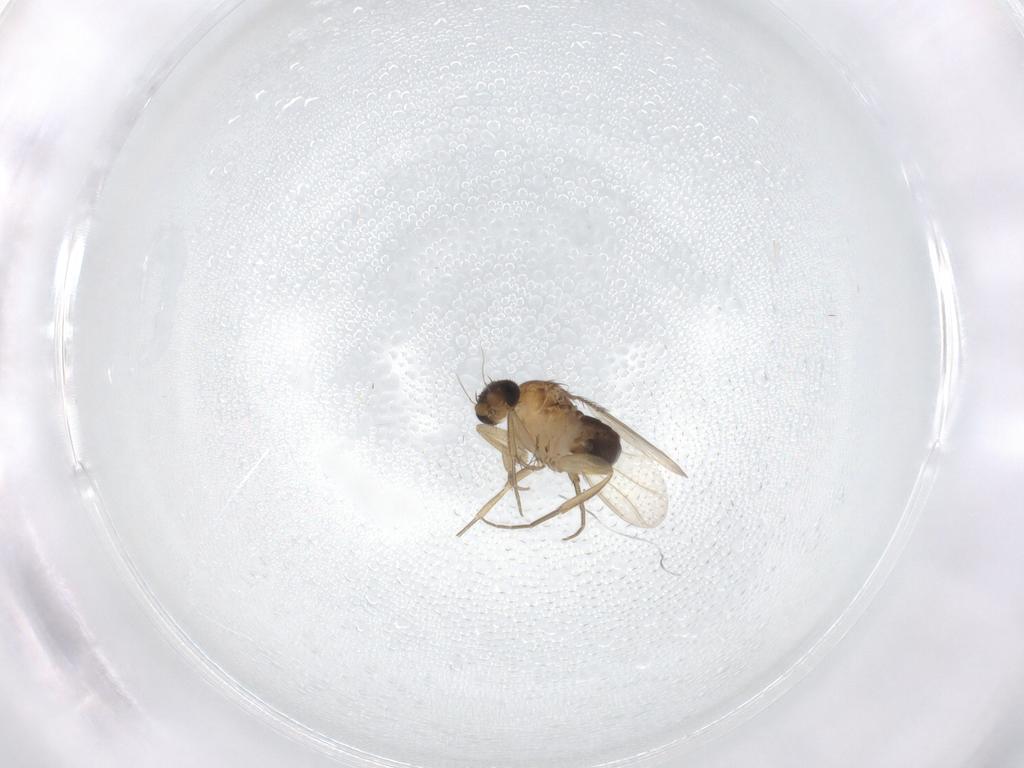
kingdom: Animalia
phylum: Arthropoda
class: Insecta
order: Diptera
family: Phoridae
